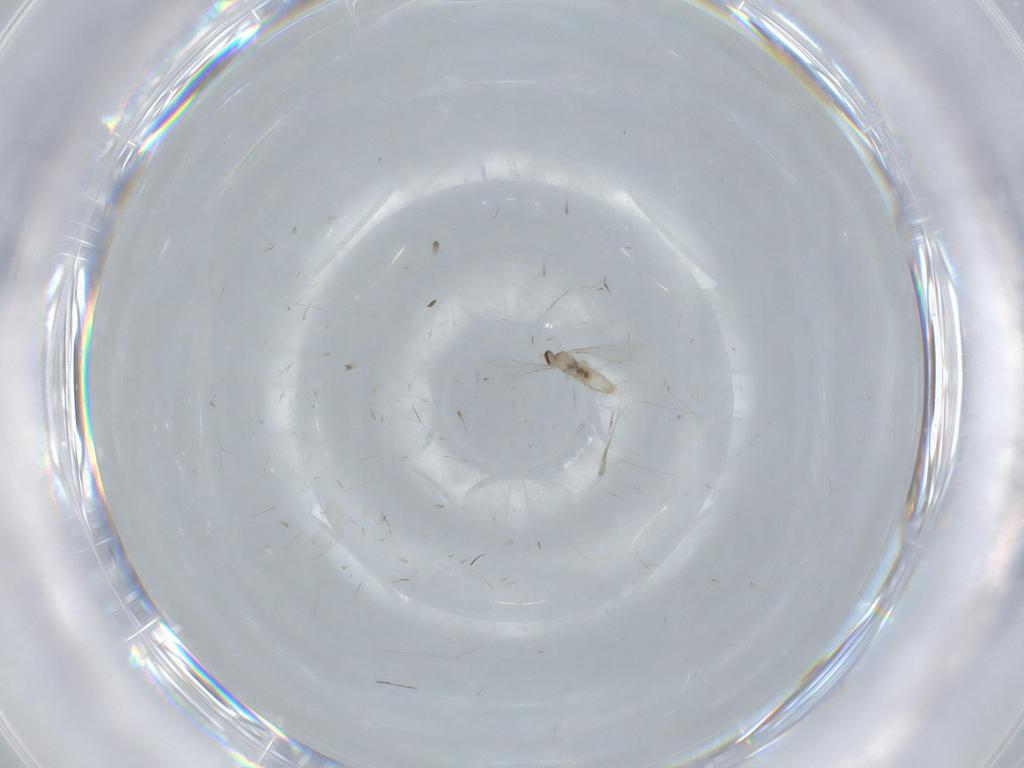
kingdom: Animalia
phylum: Arthropoda
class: Insecta
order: Diptera
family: Cecidomyiidae
